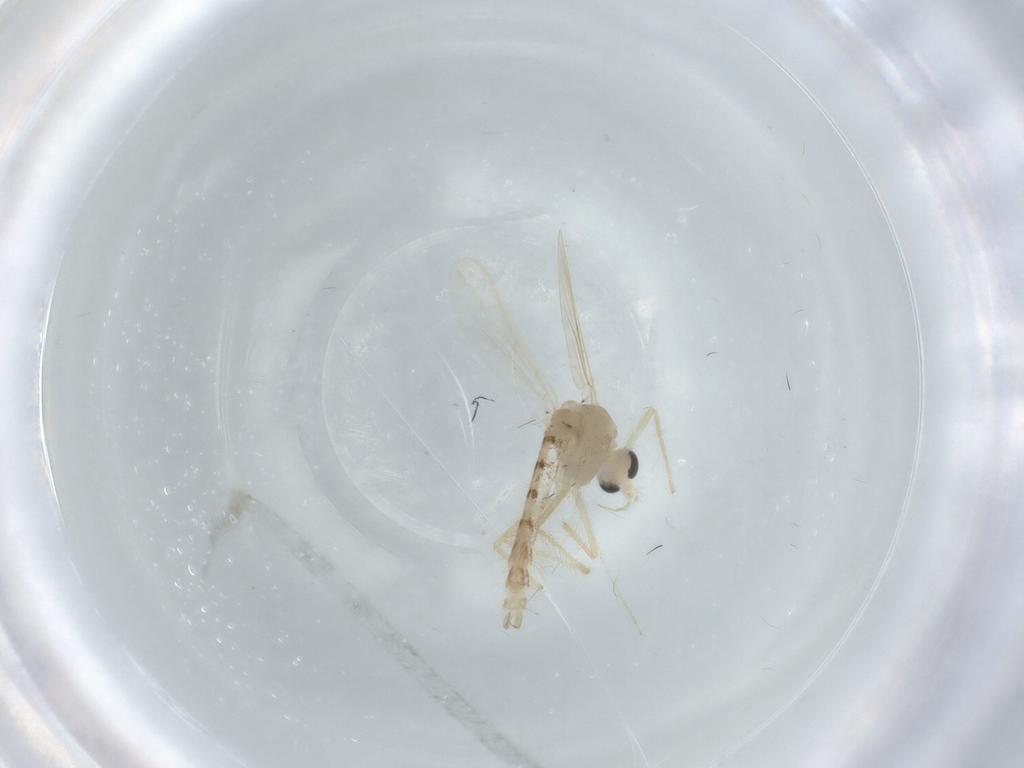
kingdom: Animalia
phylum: Arthropoda
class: Insecta
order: Diptera
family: Chironomidae
